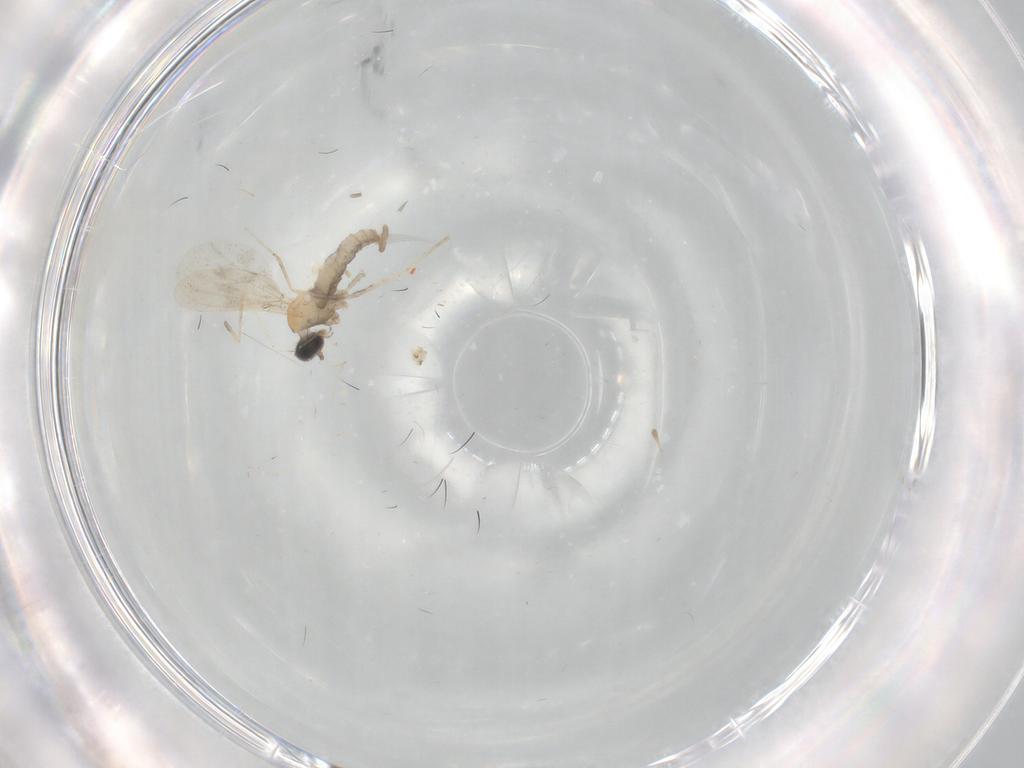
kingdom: Animalia
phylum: Arthropoda
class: Insecta
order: Diptera
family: Cecidomyiidae
